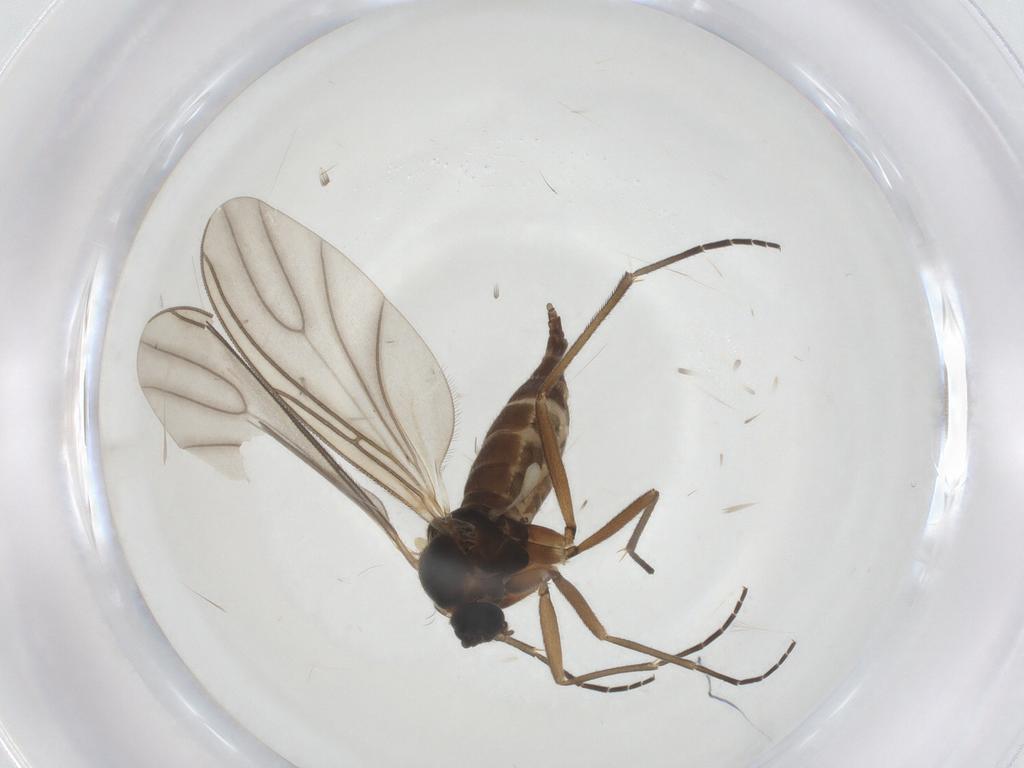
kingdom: Animalia
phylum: Arthropoda
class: Insecta
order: Diptera
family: Sciaridae
